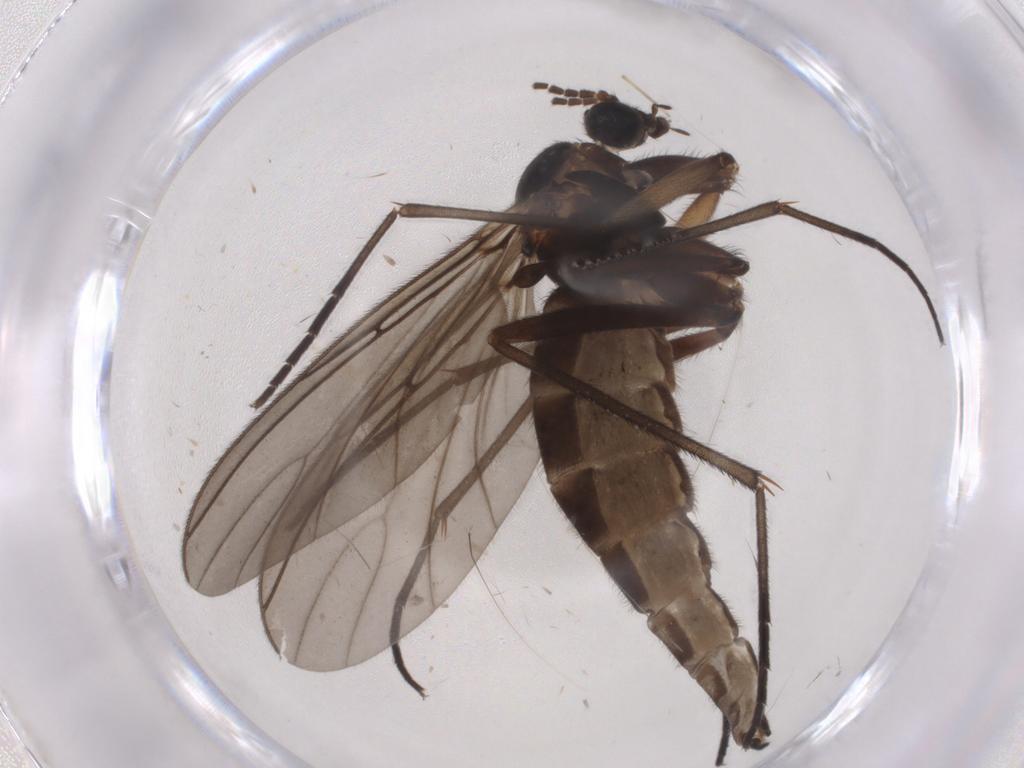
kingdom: Animalia
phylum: Arthropoda
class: Insecta
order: Diptera
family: Sciaridae
